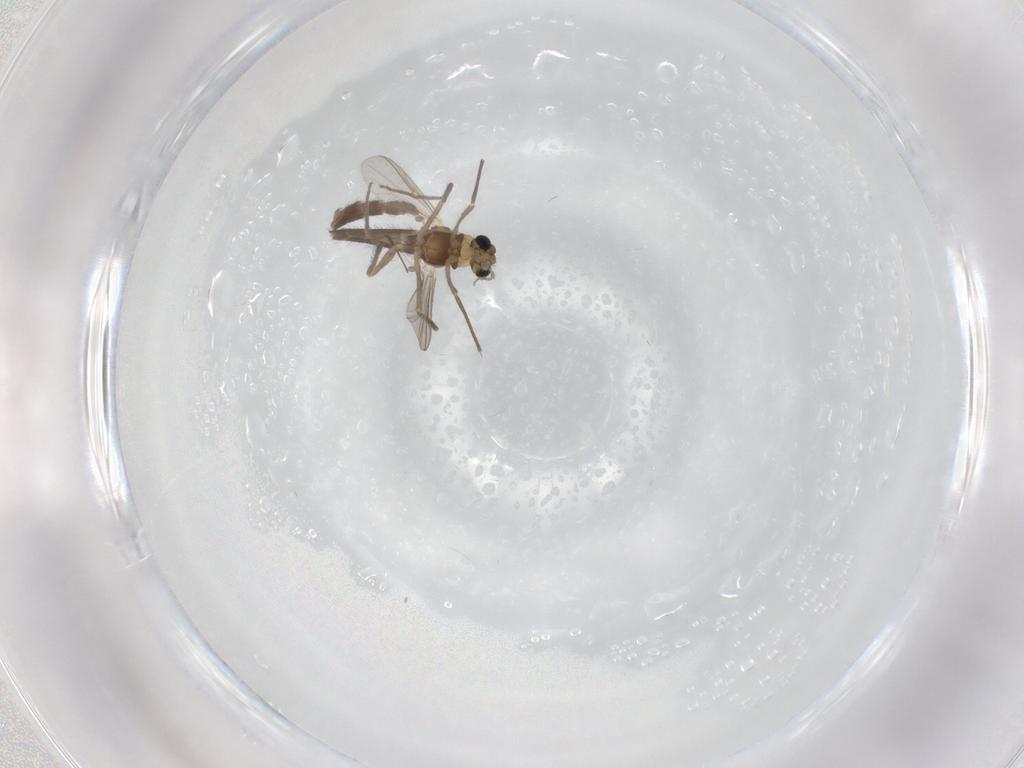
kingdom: Animalia
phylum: Arthropoda
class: Insecta
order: Diptera
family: Chironomidae
